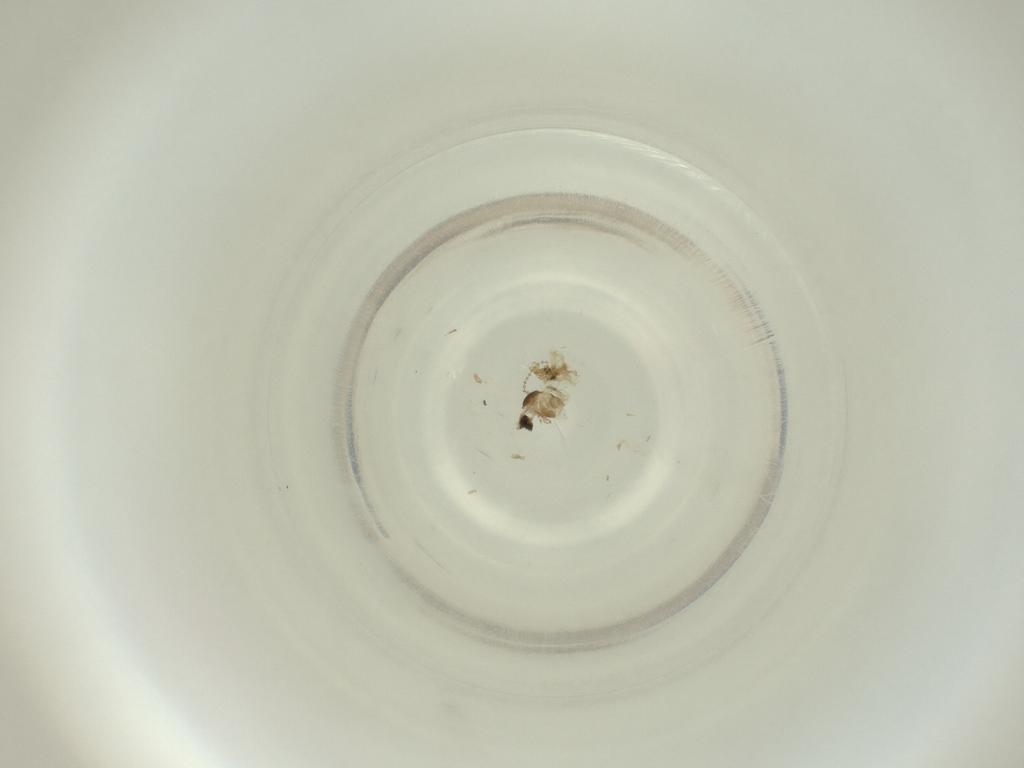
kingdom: Animalia
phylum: Arthropoda
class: Insecta
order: Diptera
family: Cecidomyiidae
